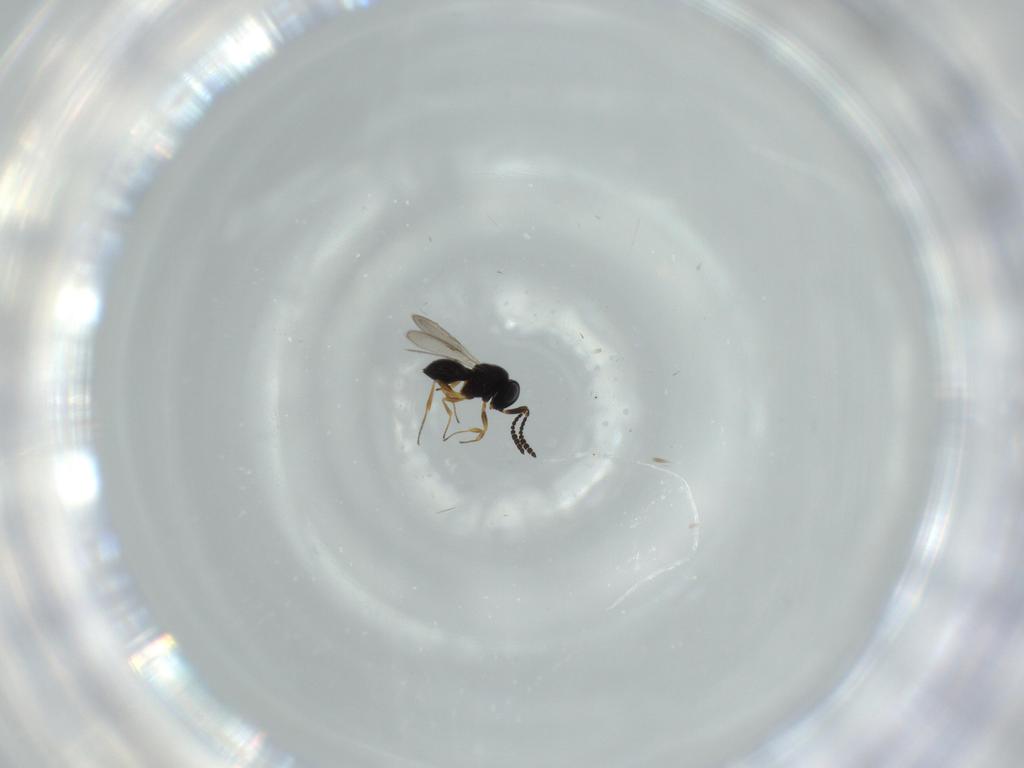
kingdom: Animalia
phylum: Arthropoda
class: Insecta
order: Hymenoptera
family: Scelionidae
